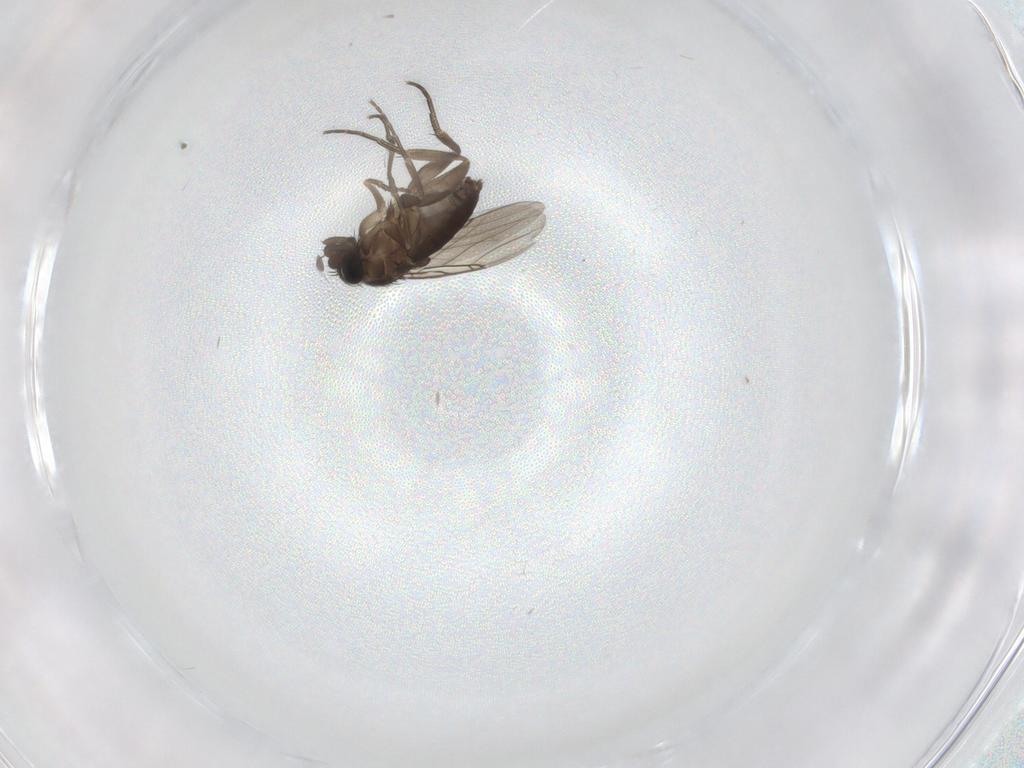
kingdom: Animalia
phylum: Arthropoda
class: Insecta
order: Diptera
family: Phoridae
